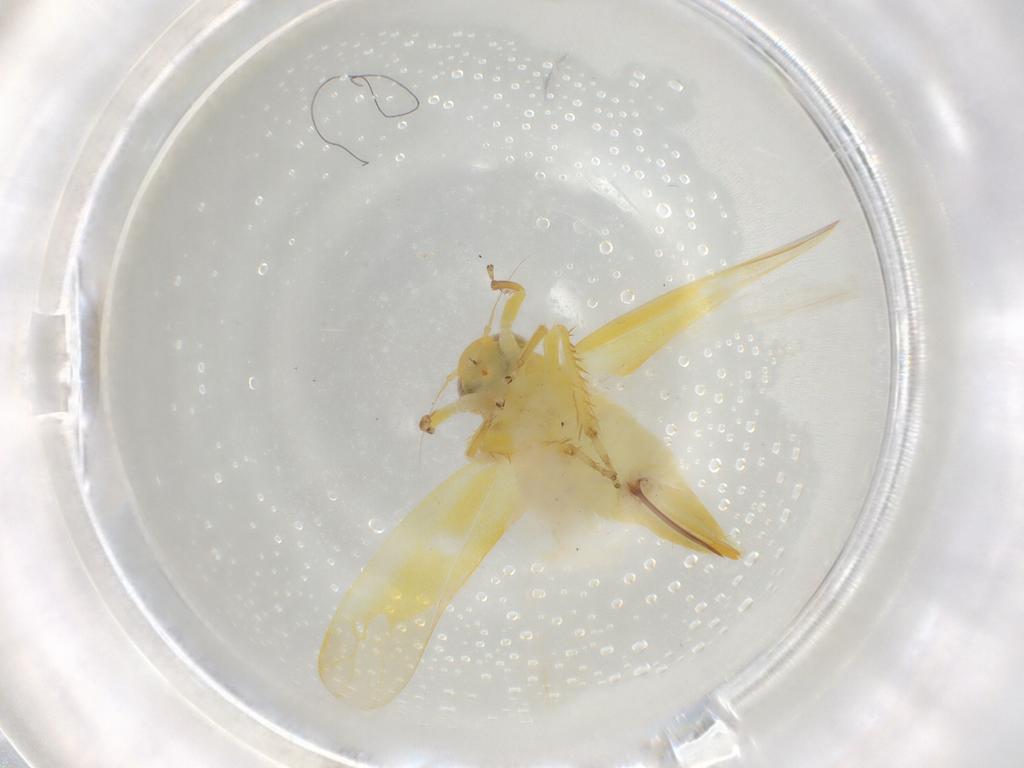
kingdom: Animalia
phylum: Arthropoda
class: Insecta
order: Hemiptera
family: Cicadellidae
